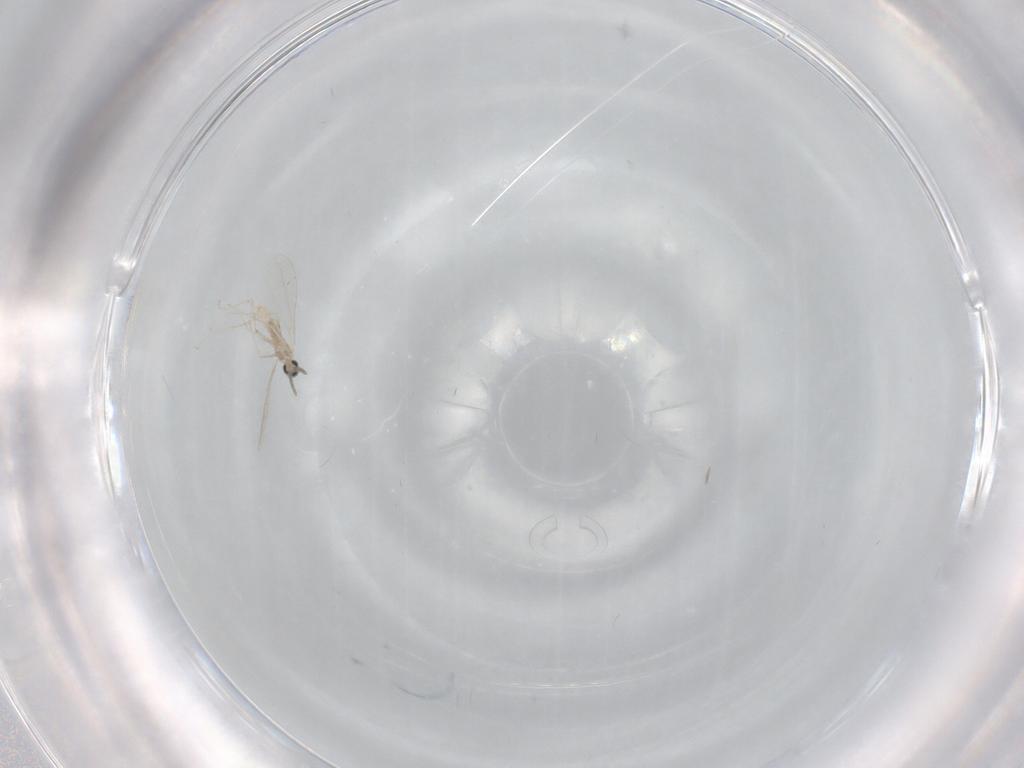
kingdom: Animalia
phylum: Arthropoda
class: Insecta
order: Diptera
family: Cecidomyiidae
